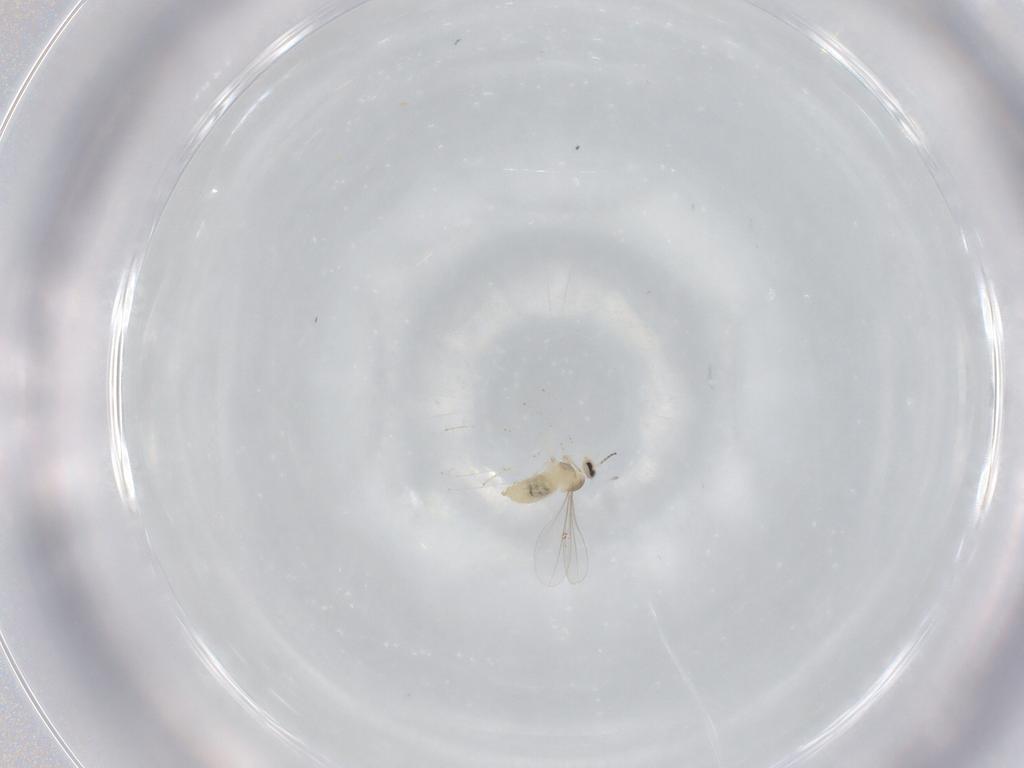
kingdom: Animalia
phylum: Arthropoda
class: Insecta
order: Diptera
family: Cecidomyiidae
